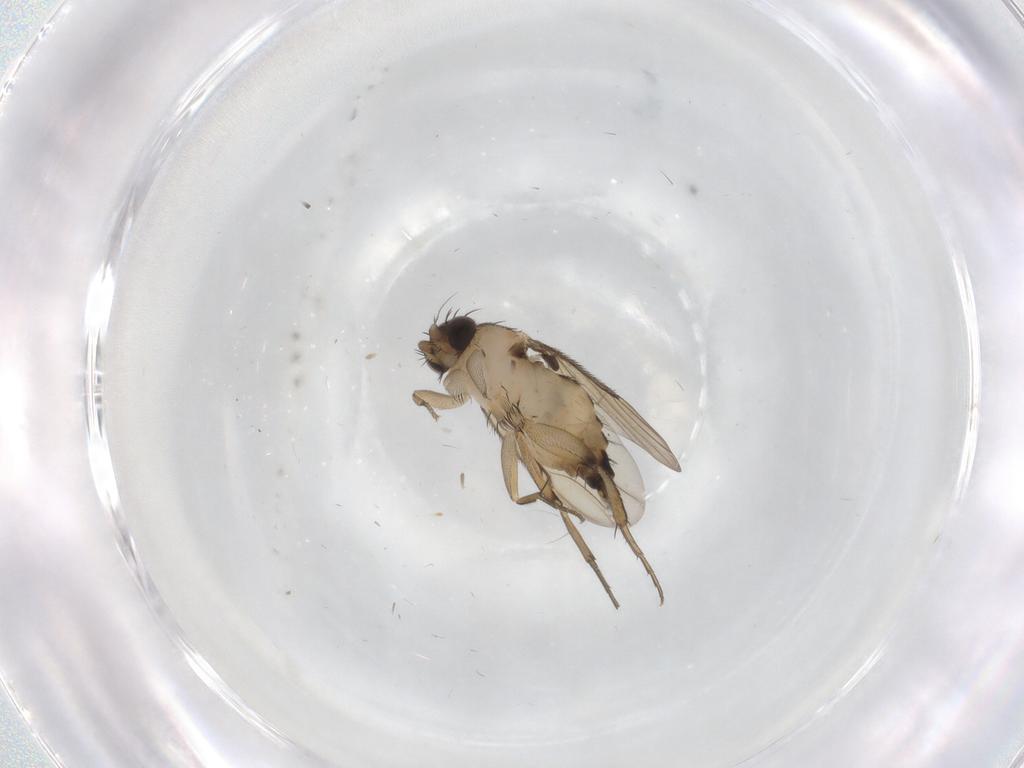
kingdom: Animalia
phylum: Arthropoda
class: Insecta
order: Diptera
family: Phoridae
